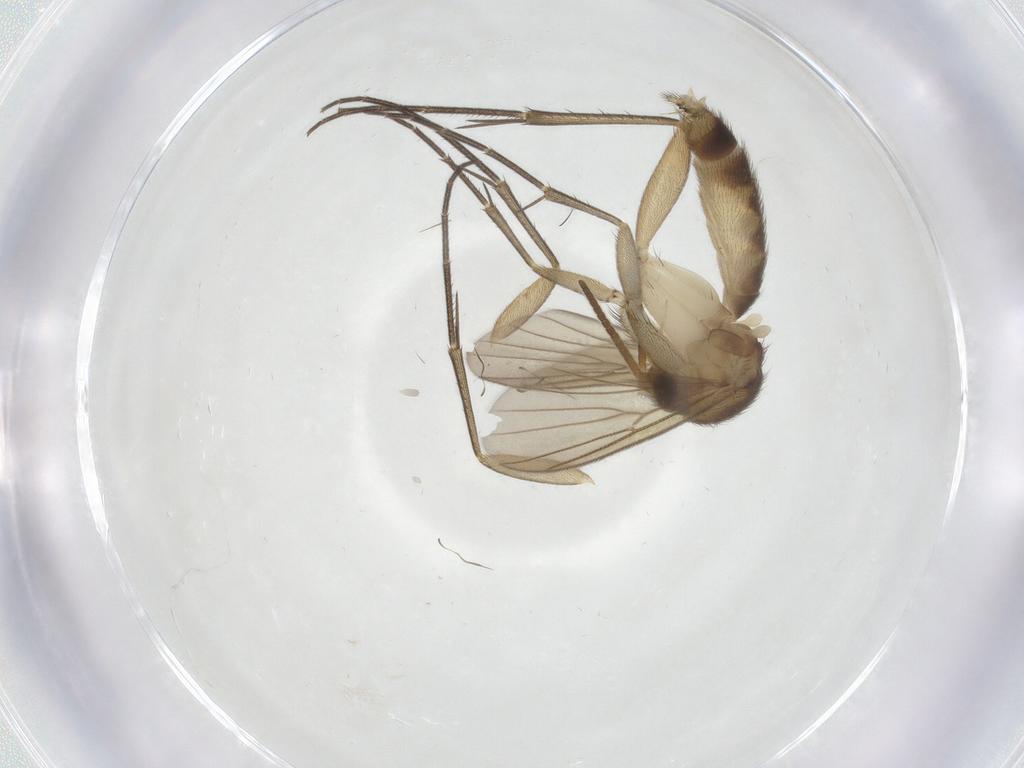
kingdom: Animalia
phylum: Arthropoda
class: Insecta
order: Diptera
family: Mycetophilidae
